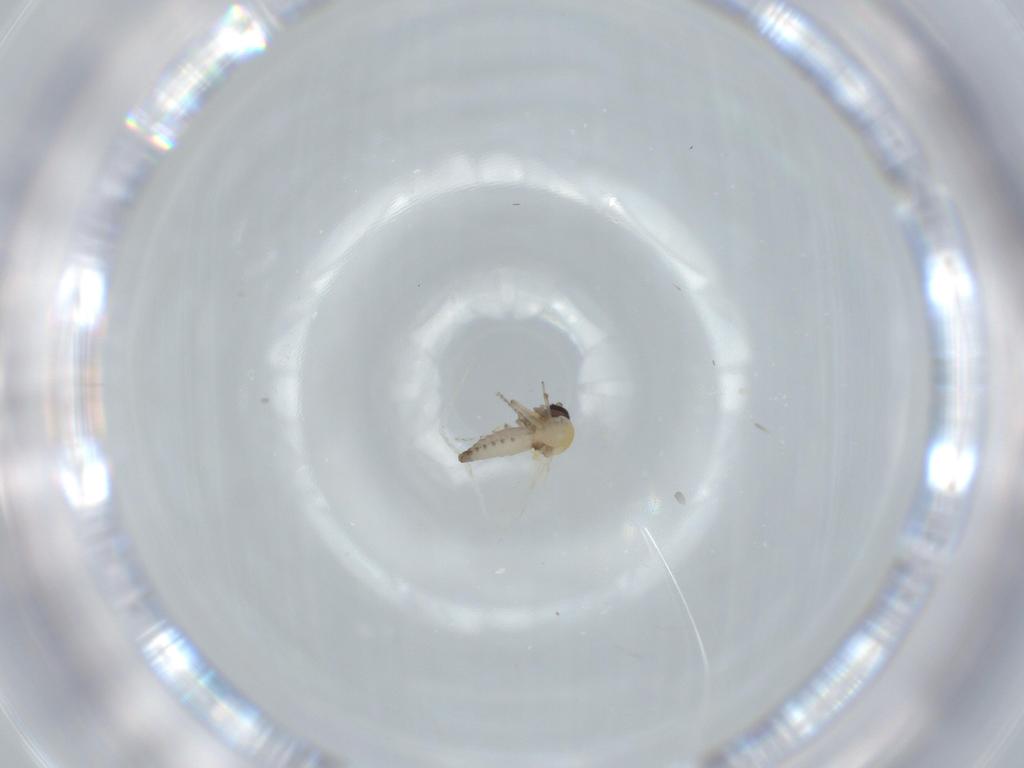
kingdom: Animalia
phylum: Arthropoda
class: Insecta
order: Diptera
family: Ceratopogonidae
